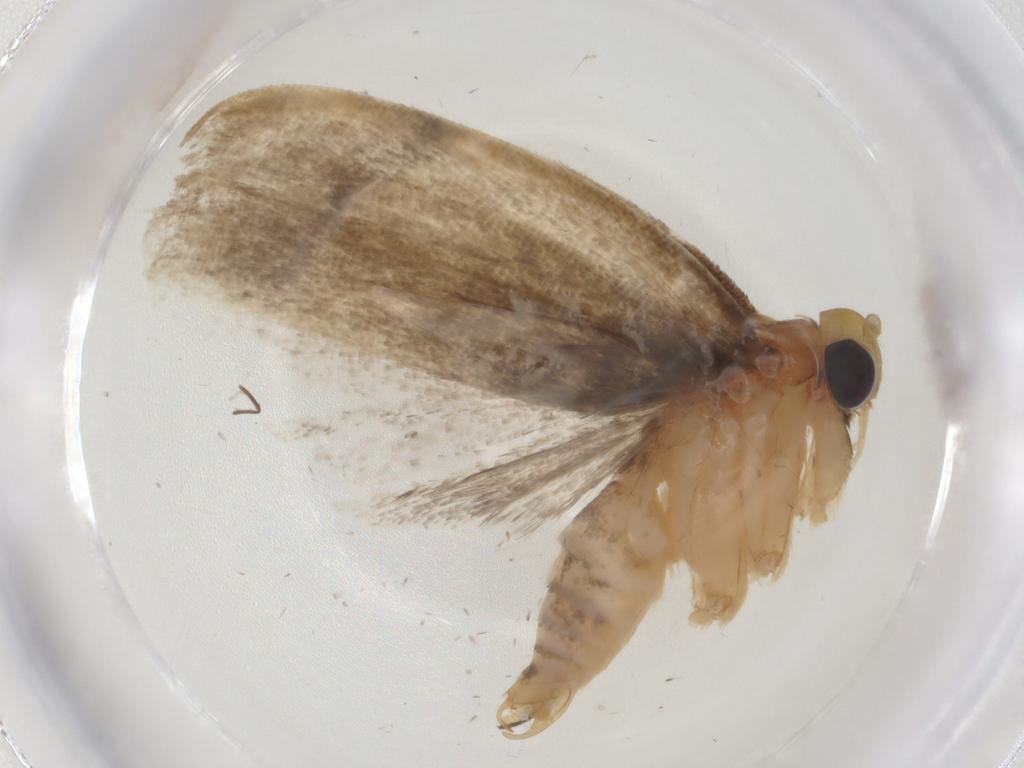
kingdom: Animalia
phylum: Arthropoda
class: Insecta
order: Lepidoptera
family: Depressariidae
